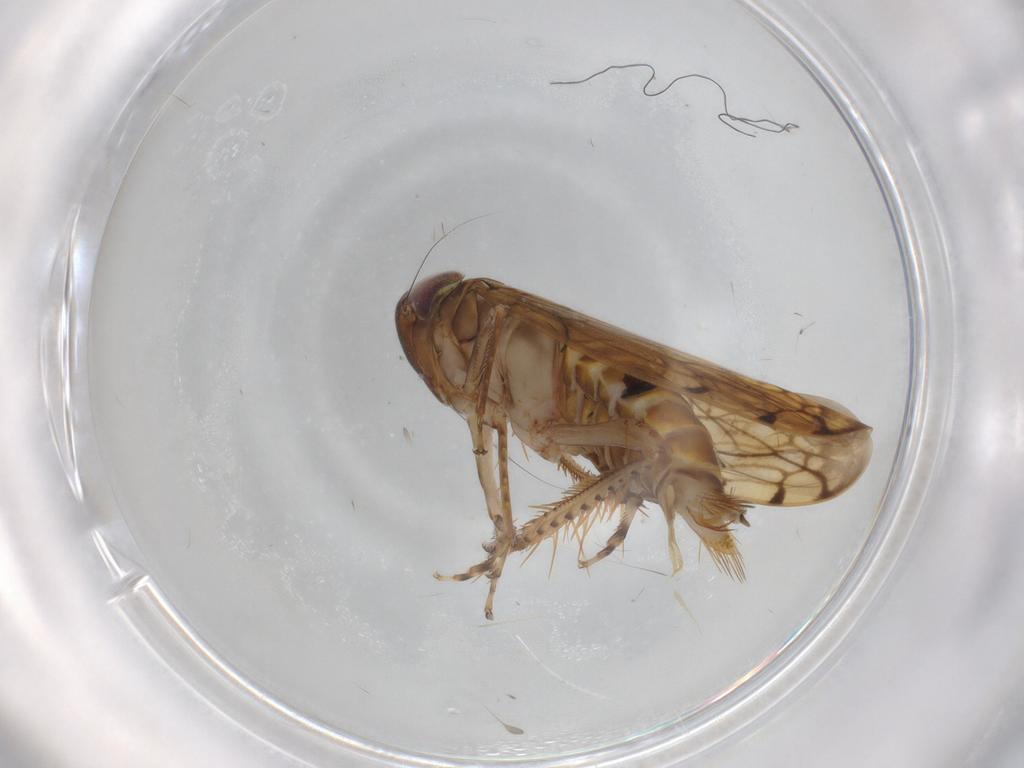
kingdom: Animalia
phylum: Arthropoda
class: Insecta
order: Hemiptera
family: Cicadellidae
